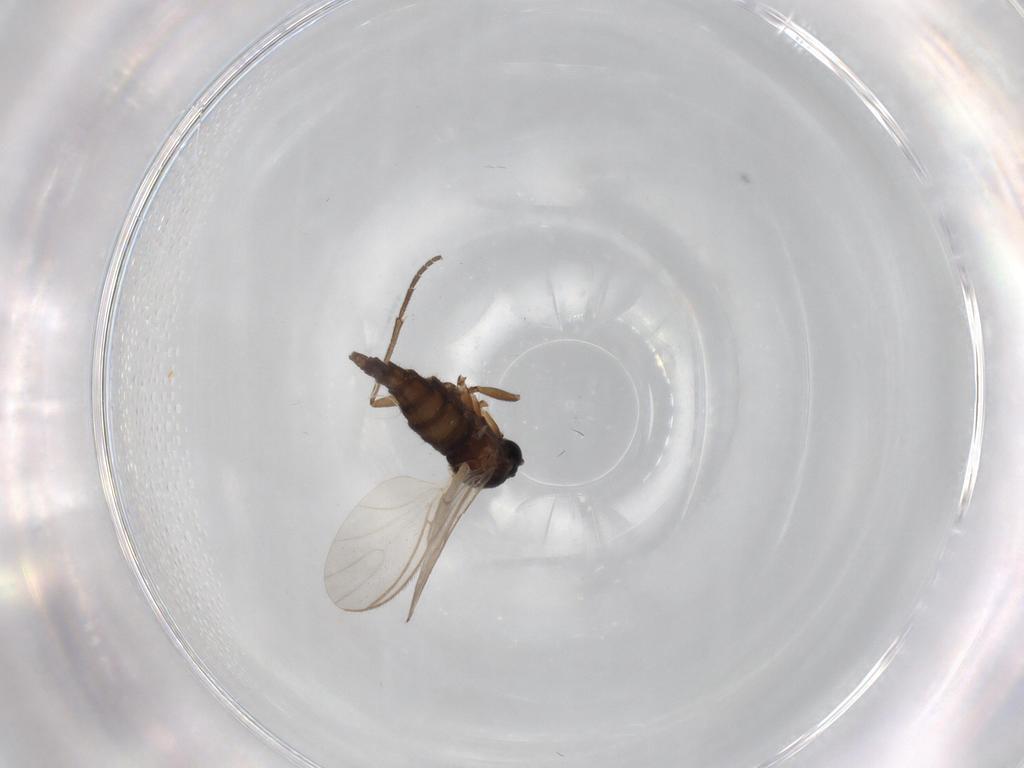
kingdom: Animalia
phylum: Arthropoda
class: Insecta
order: Diptera
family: Sciaridae
